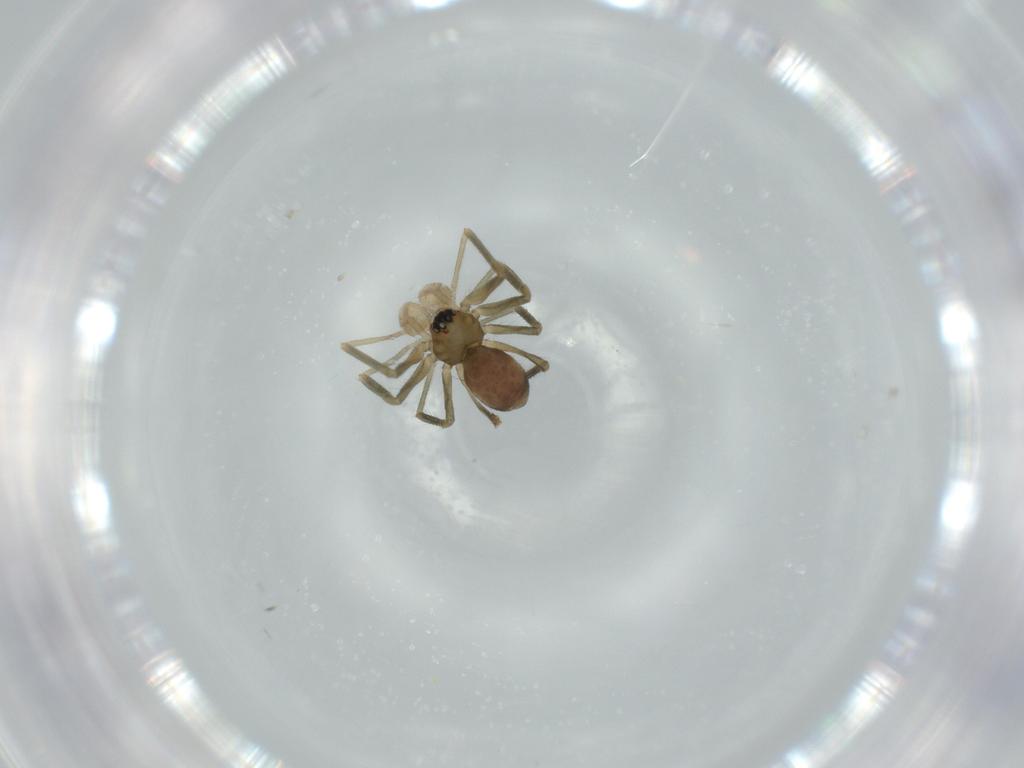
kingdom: Animalia
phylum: Arthropoda
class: Arachnida
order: Araneae
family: Linyphiidae
